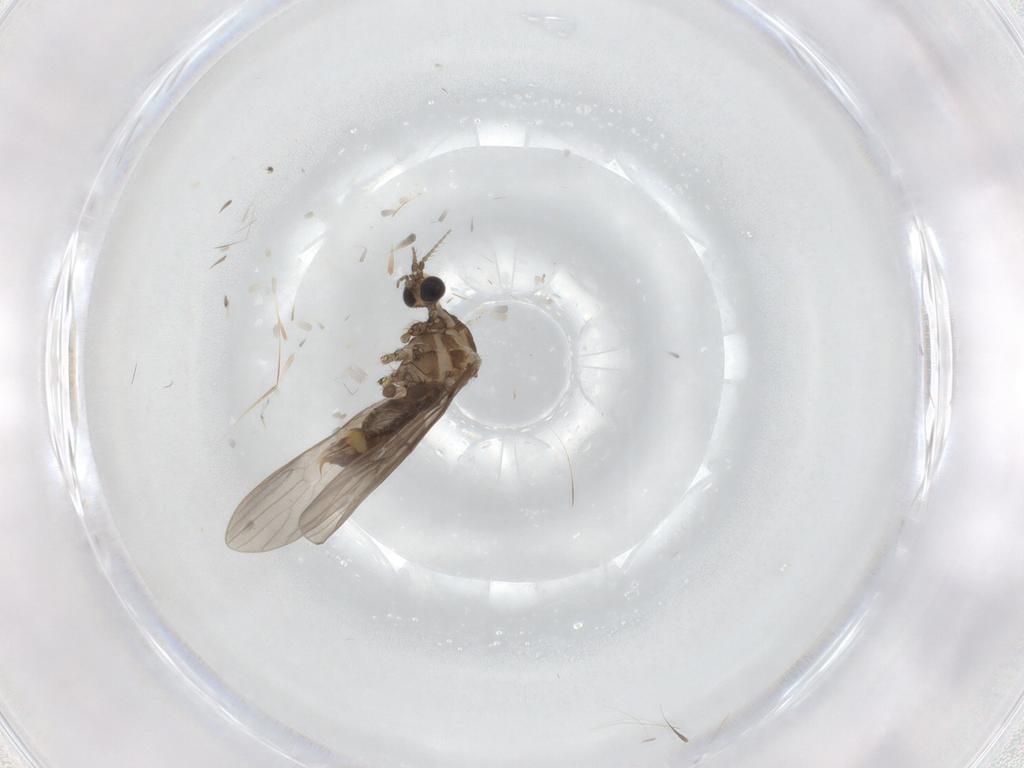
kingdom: Animalia
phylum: Arthropoda
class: Insecta
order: Diptera
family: Limoniidae
